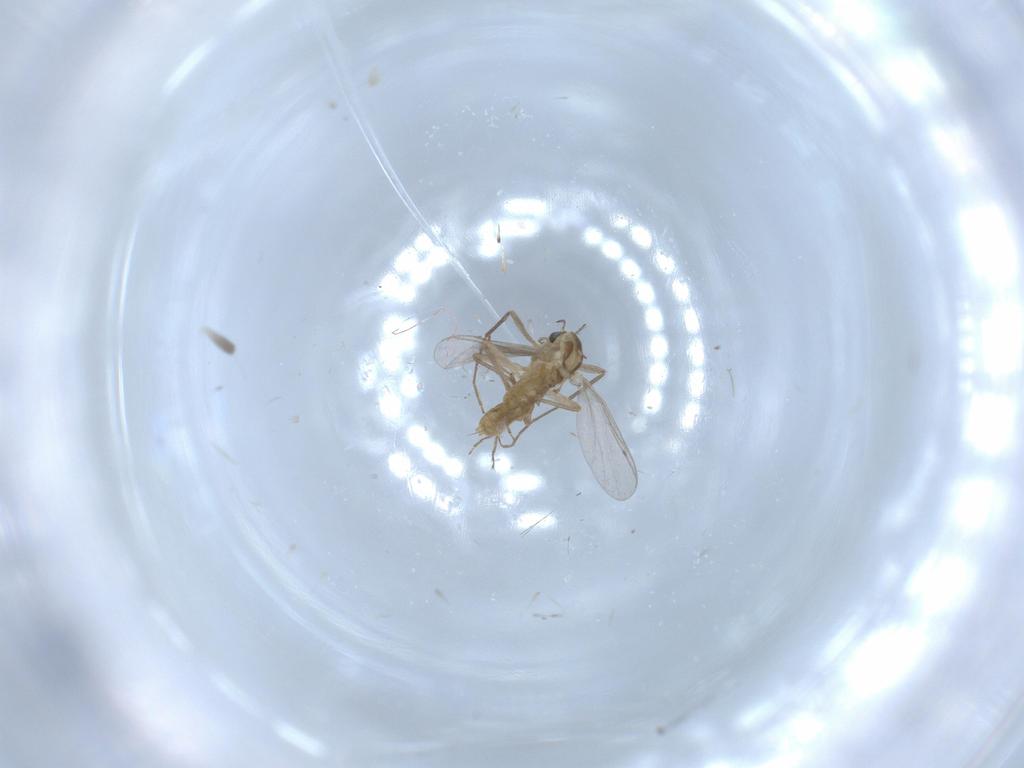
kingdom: Animalia
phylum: Arthropoda
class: Insecta
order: Diptera
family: Chironomidae
